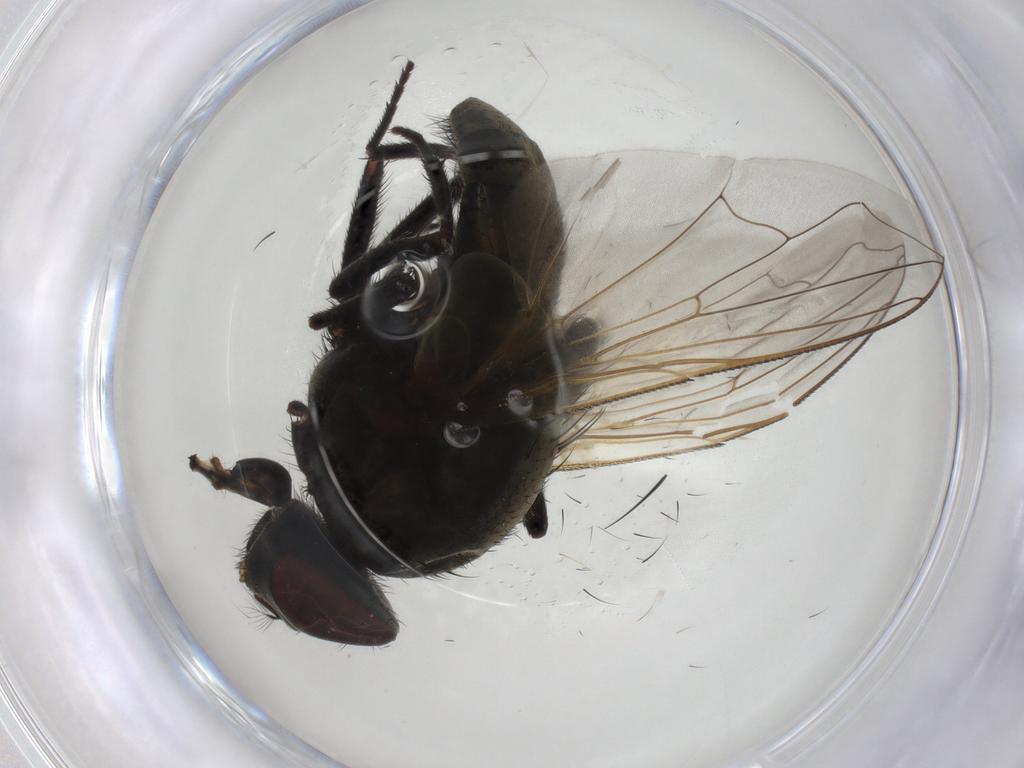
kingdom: Animalia
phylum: Arthropoda
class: Insecta
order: Diptera
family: Muscidae
